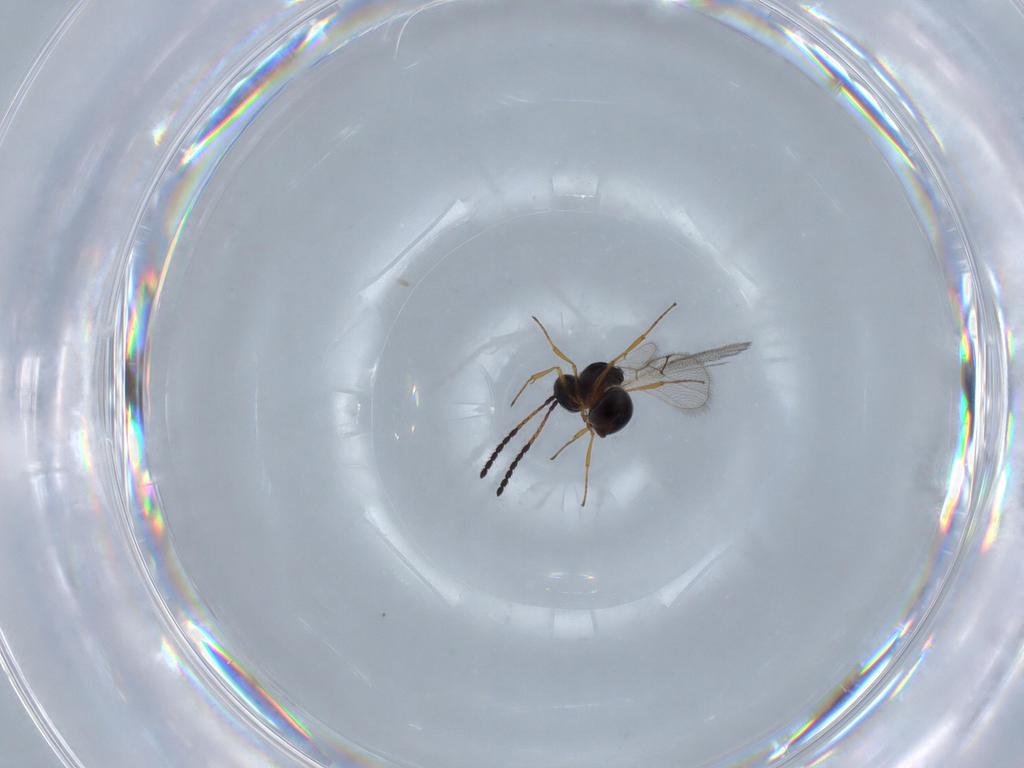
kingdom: Animalia
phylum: Arthropoda
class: Insecta
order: Hymenoptera
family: Figitidae
